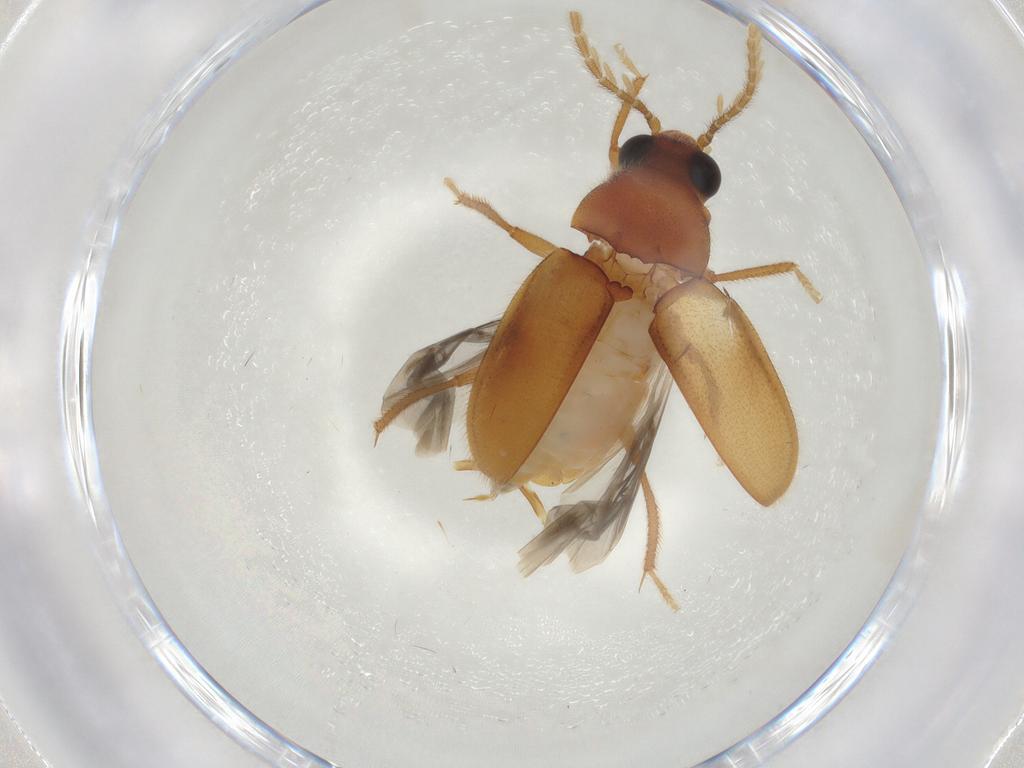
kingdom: Animalia
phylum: Arthropoda
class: Insecta
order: Coleoptera
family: Ptilodactylidae
